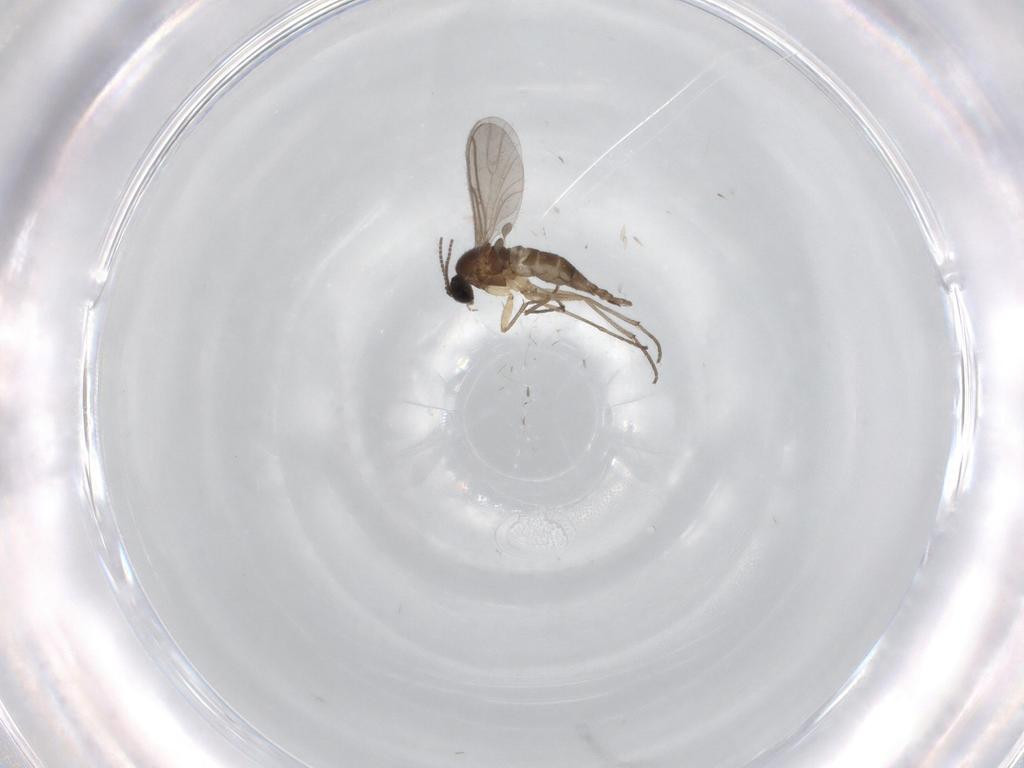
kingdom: Animalia
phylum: Arthropoda
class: Insecta
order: Diptera
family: Sciaridae
